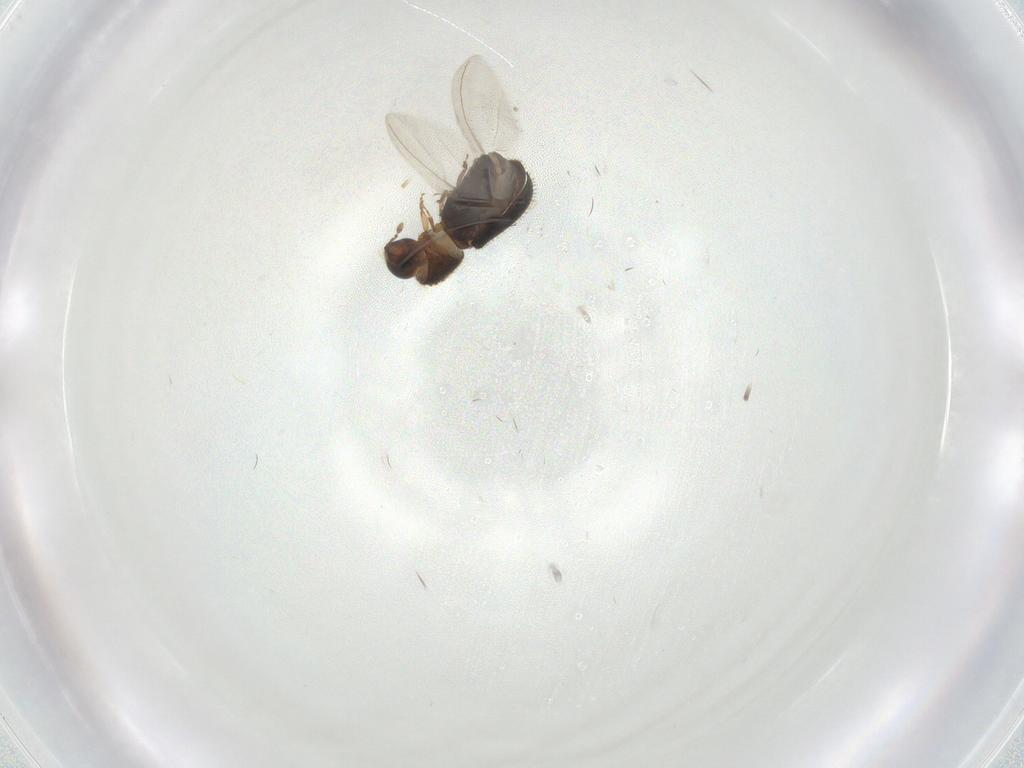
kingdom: Animalia
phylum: Arthropoda
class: Insecta
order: Coleoptera
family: Curculionidae
